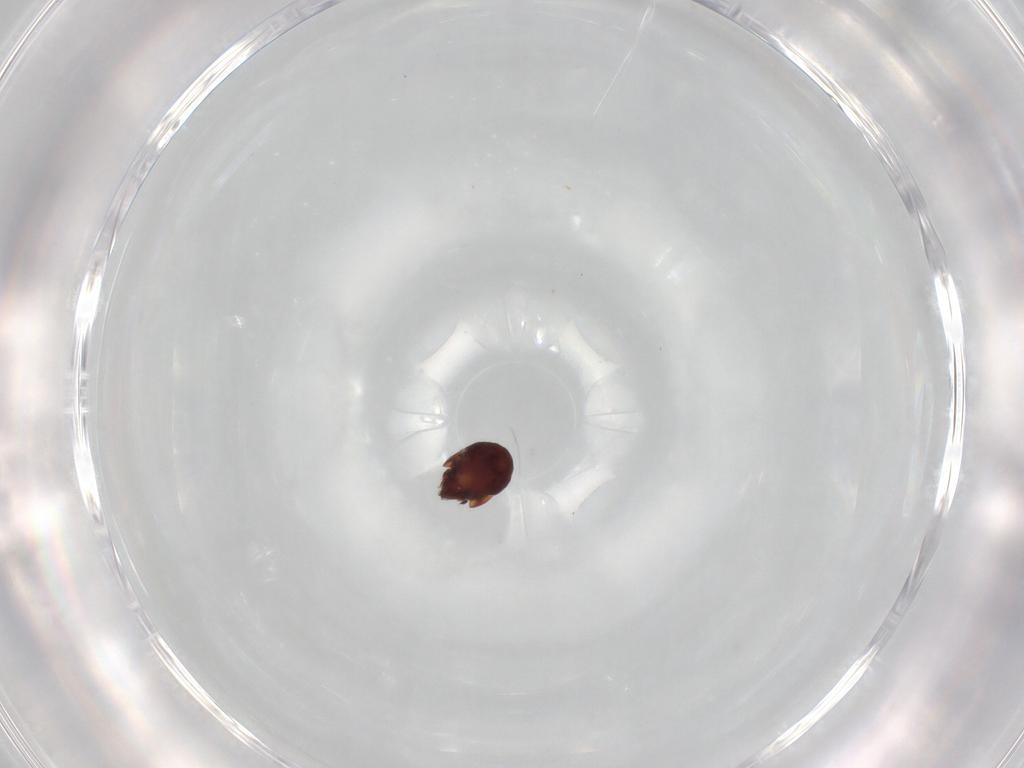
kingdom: Animalia
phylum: Arthropoda
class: Arachnida
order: Sarcoptiformes
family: Humerobatidae
